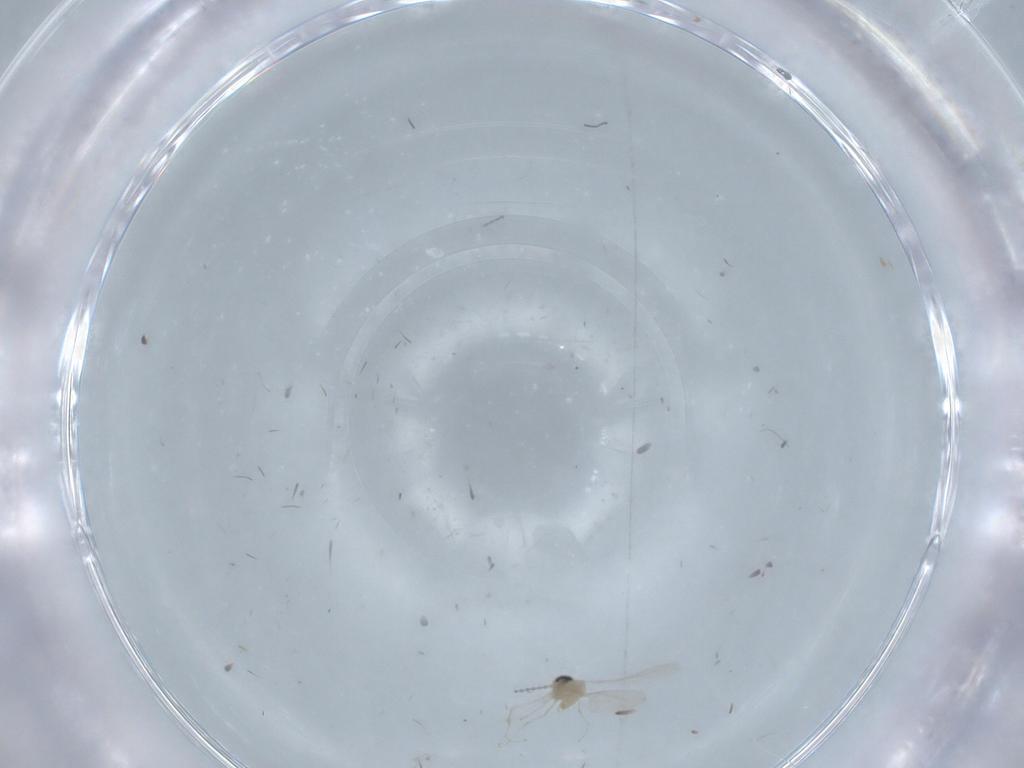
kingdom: Animalia
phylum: Arthropoda
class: Insecta
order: Diptera
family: Cecidomyiidae
